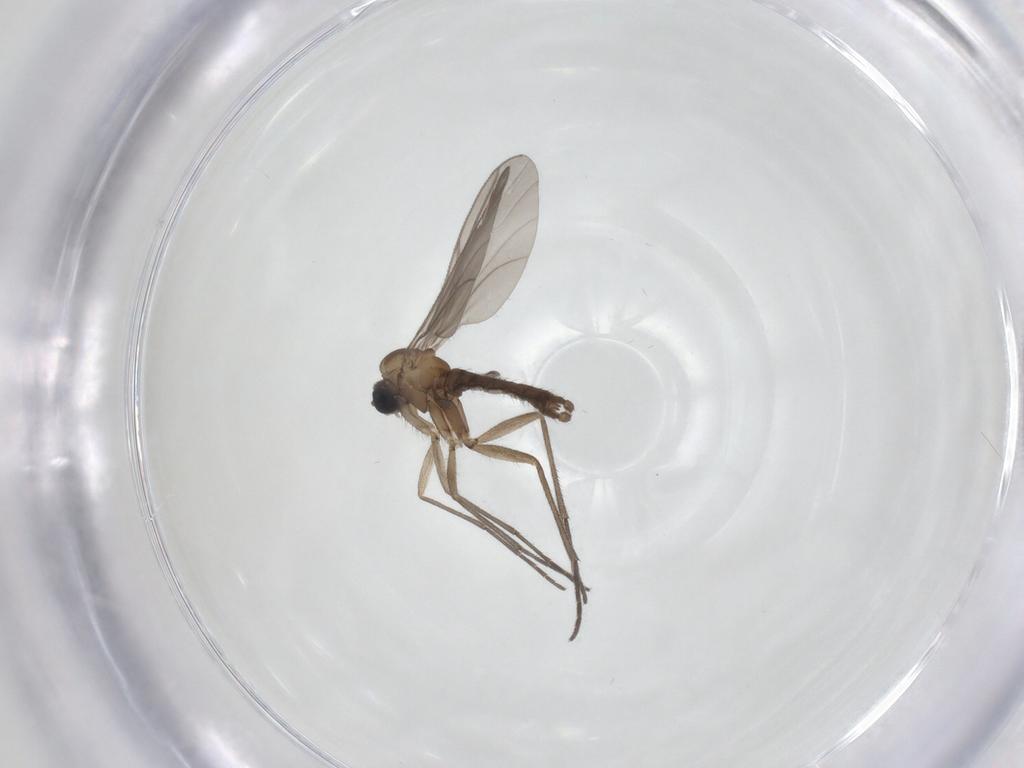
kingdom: Animalia
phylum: Arthropoda
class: Insecta
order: Diptera
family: Sciaridae
